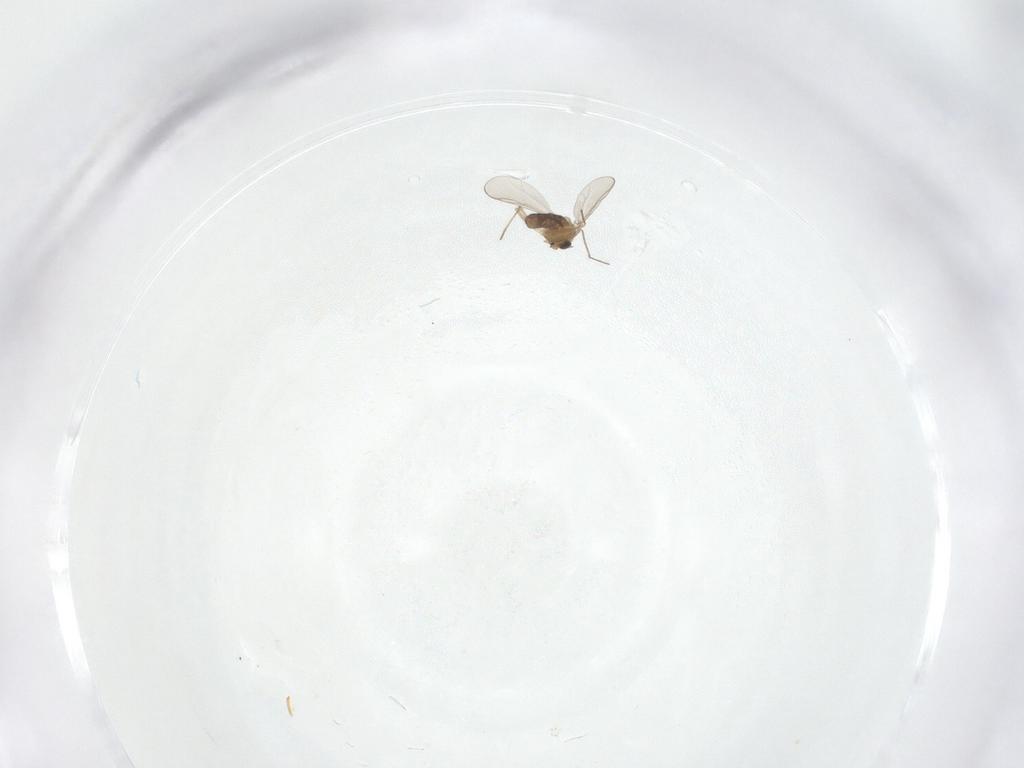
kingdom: Animalia
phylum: Arthropoda
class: Insecta
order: Diptera
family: Chironomidae
